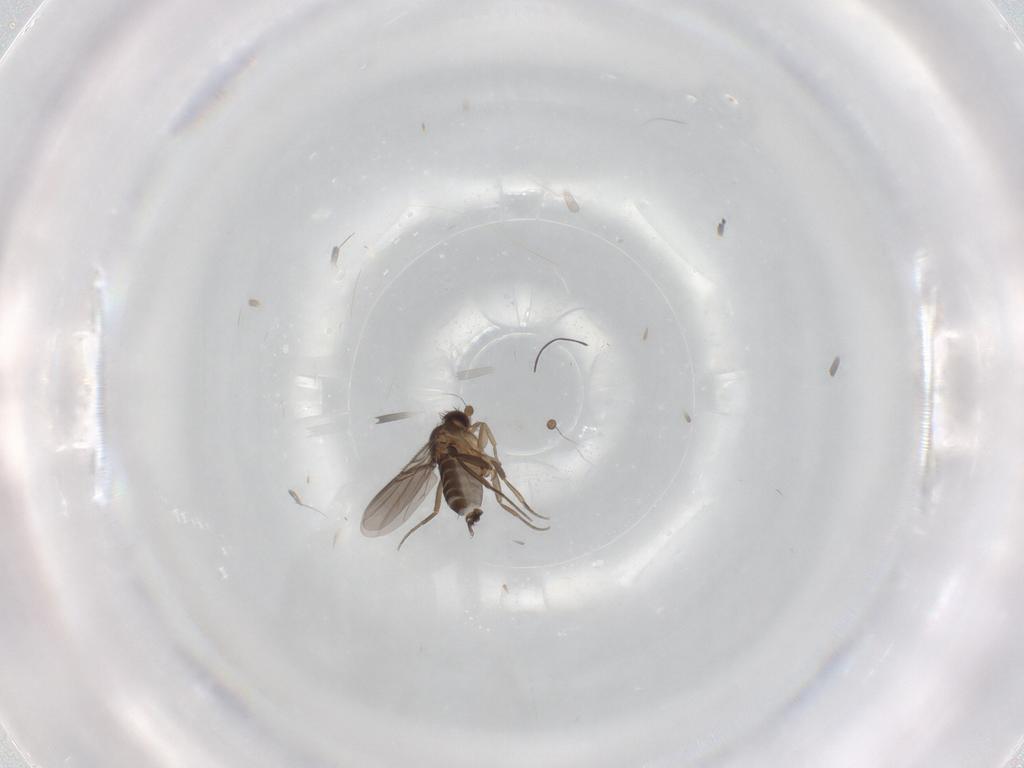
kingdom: Animalia
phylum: Arthropoda
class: Insecta
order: Diptera
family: Phoridae
